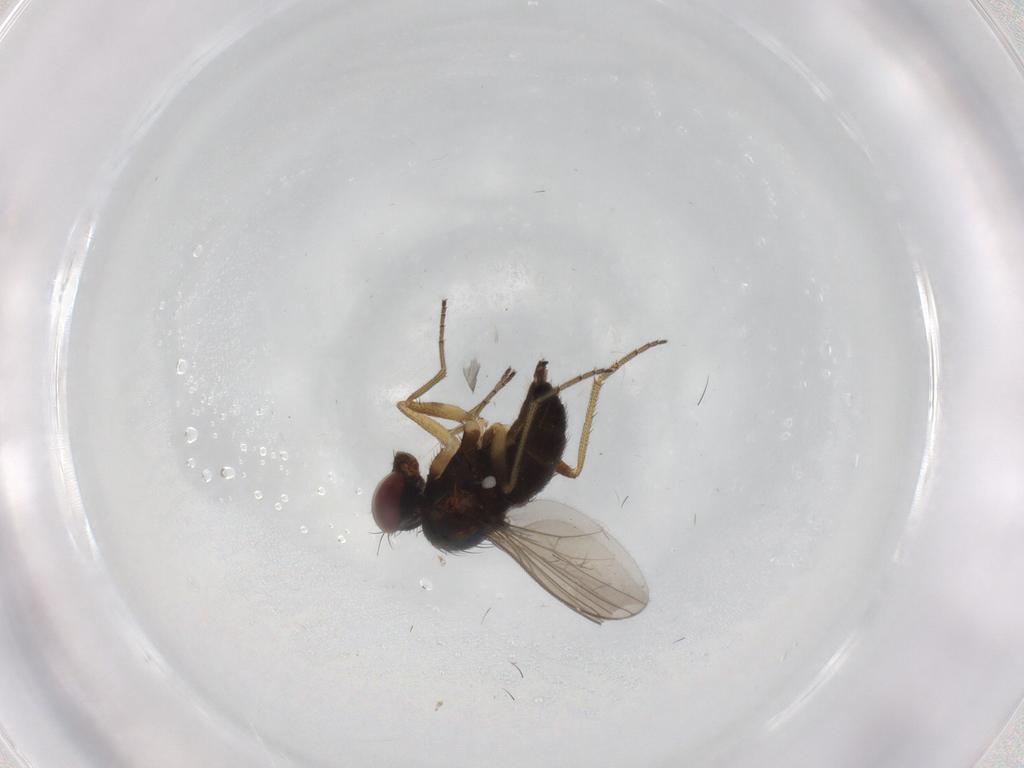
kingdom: Animalia
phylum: Arthropoda
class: Insecta
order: Diptera
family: Dolichopodidae
